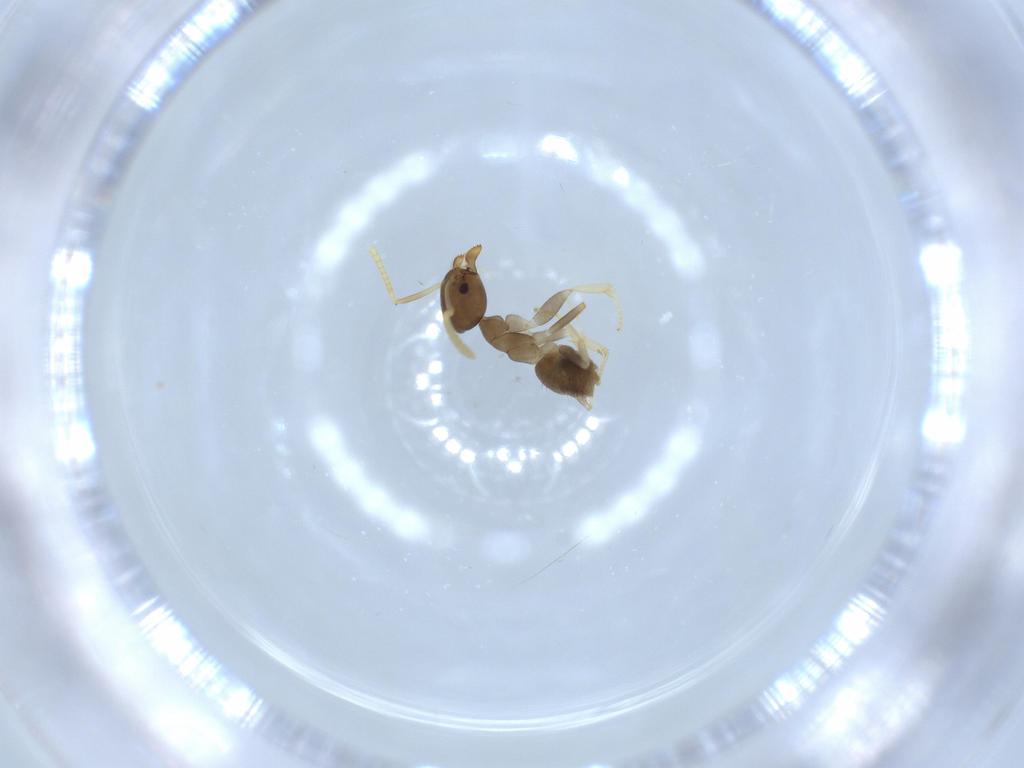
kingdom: Animalia
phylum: Arthropoda
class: Insecta
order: Hymenoptera
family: Formicidae
